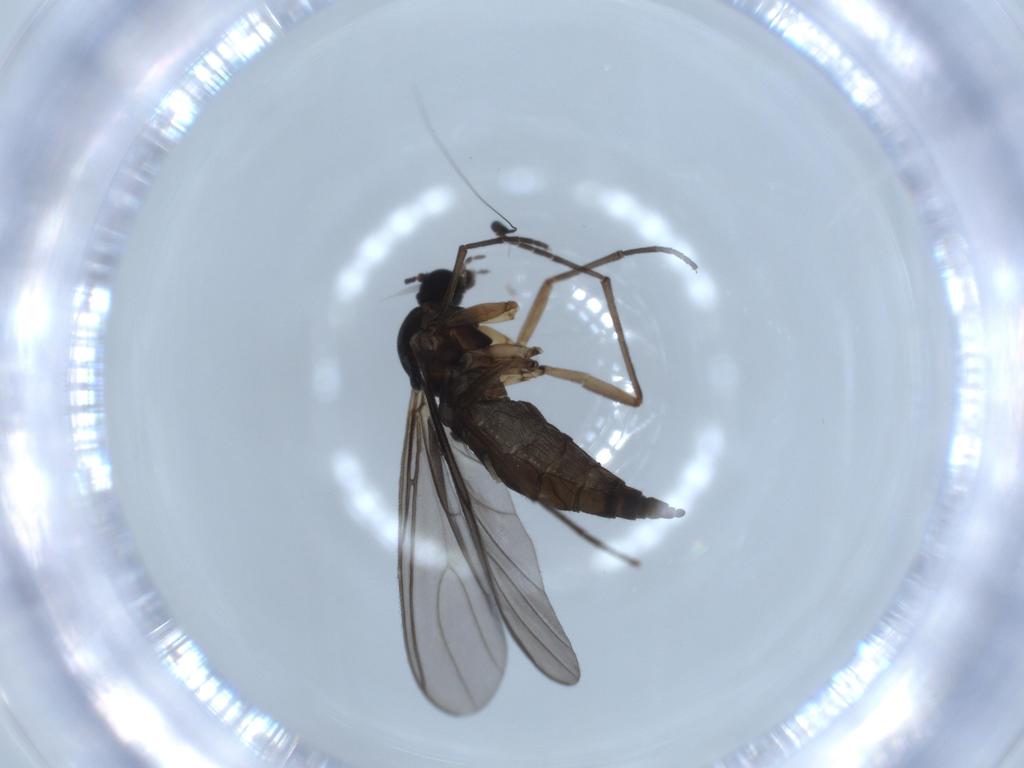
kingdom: Animalia
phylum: Arthropoda
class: Insecta
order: Diptera
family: Sciaridae
